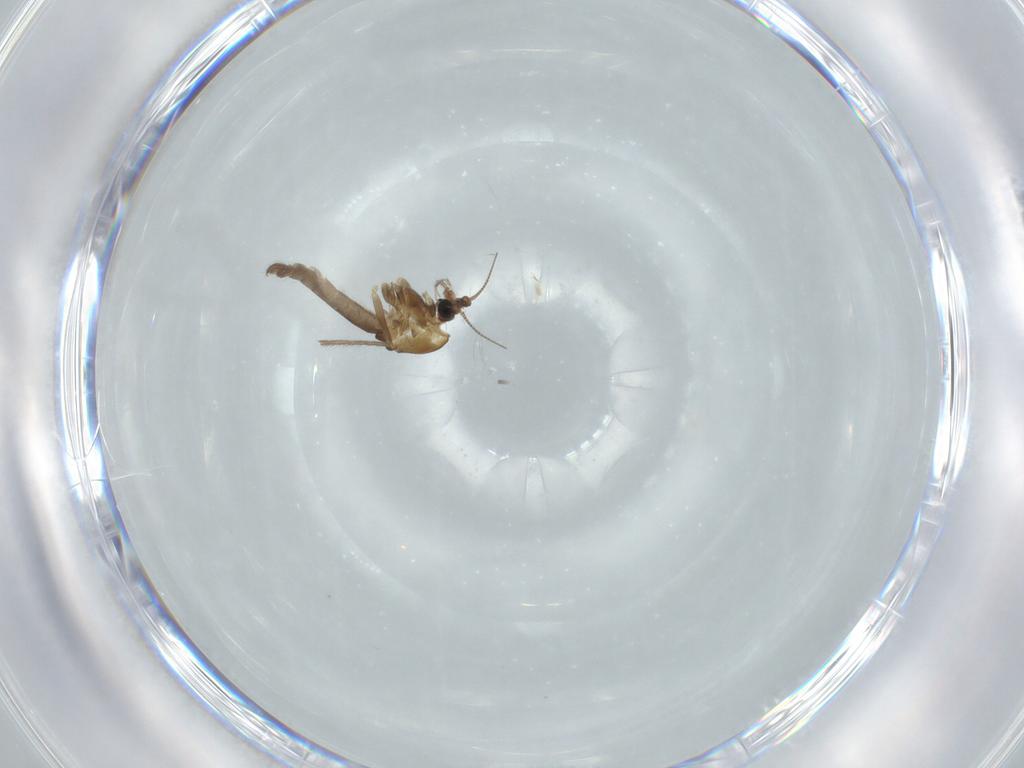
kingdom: Animalia
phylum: Arthropoda
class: Insecta
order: Diptera
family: Chironomidae
